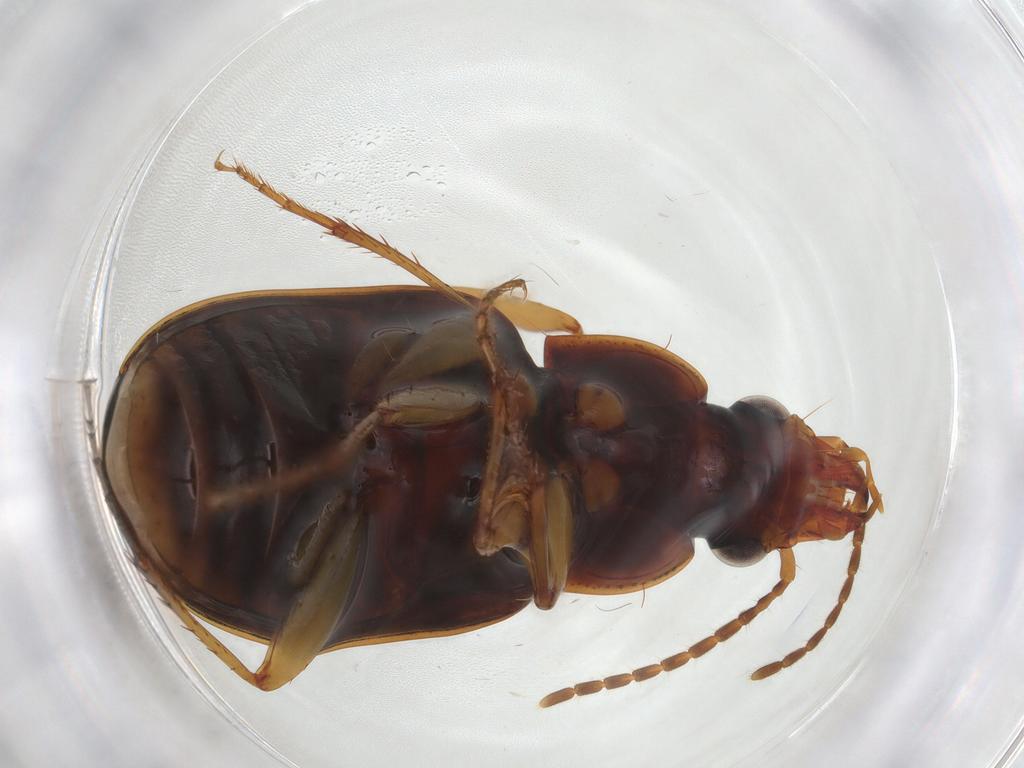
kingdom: Animalia
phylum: Arthropoda
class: Insecta
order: Coleoptera
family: Carabidae
